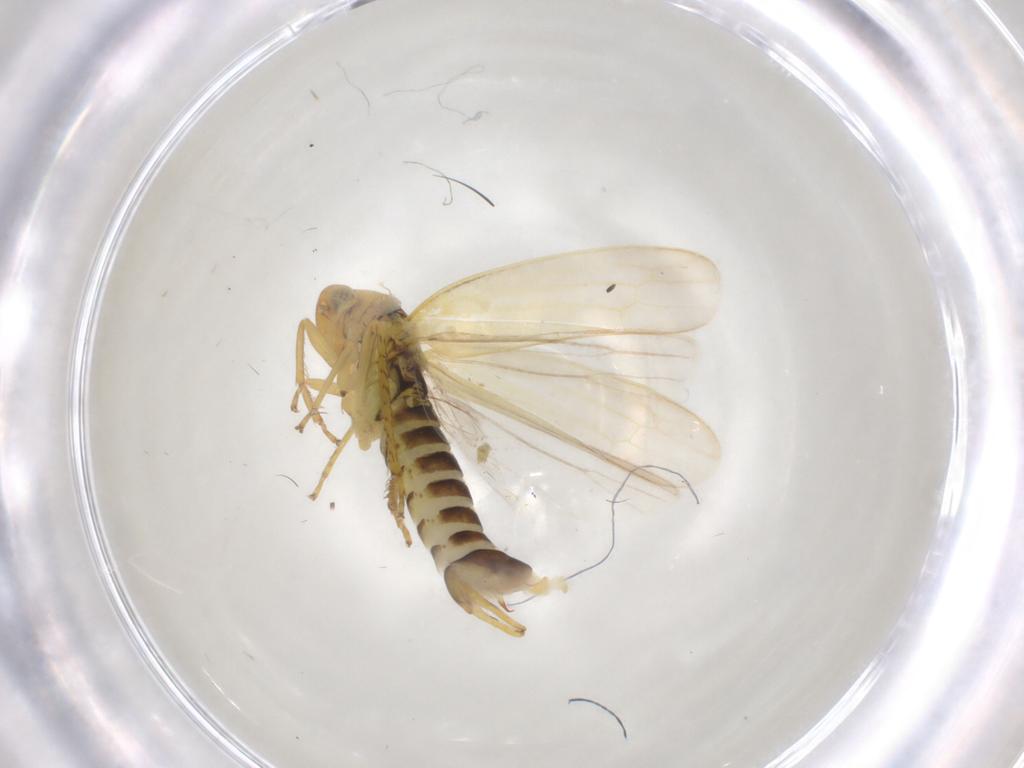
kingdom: Animalia
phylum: Arthropoda
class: Insecta
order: Hemiptera
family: Cicadellidae
